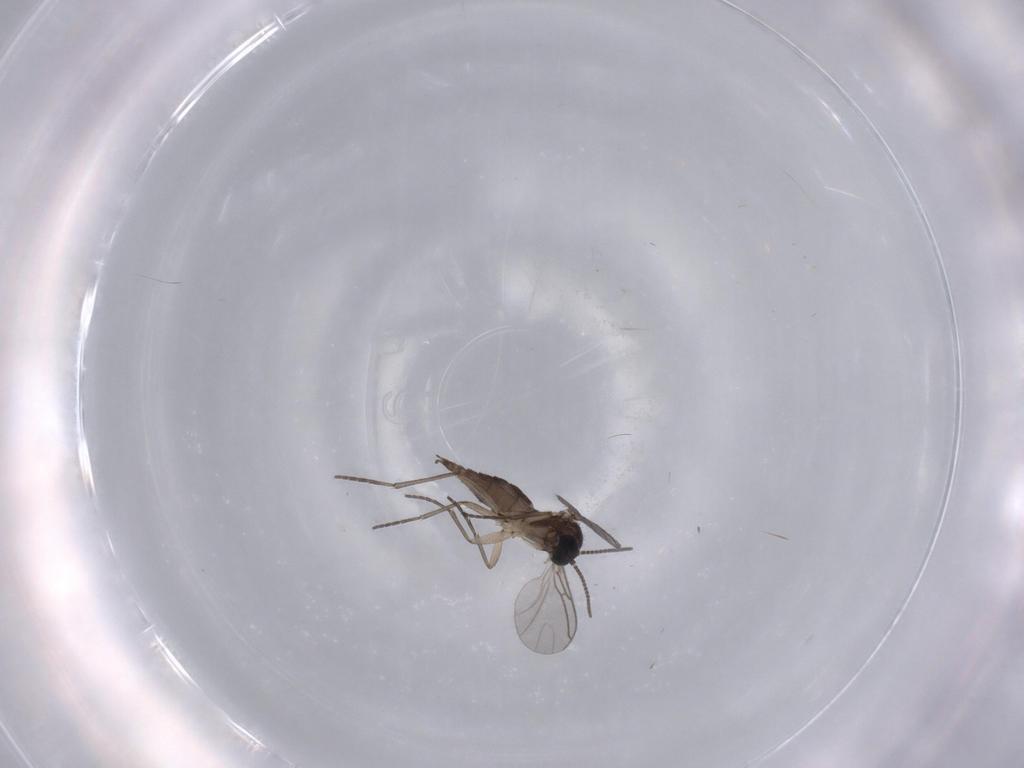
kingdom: Animalia
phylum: Arthropoda
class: Insecta
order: Diptera
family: Sciaridae
